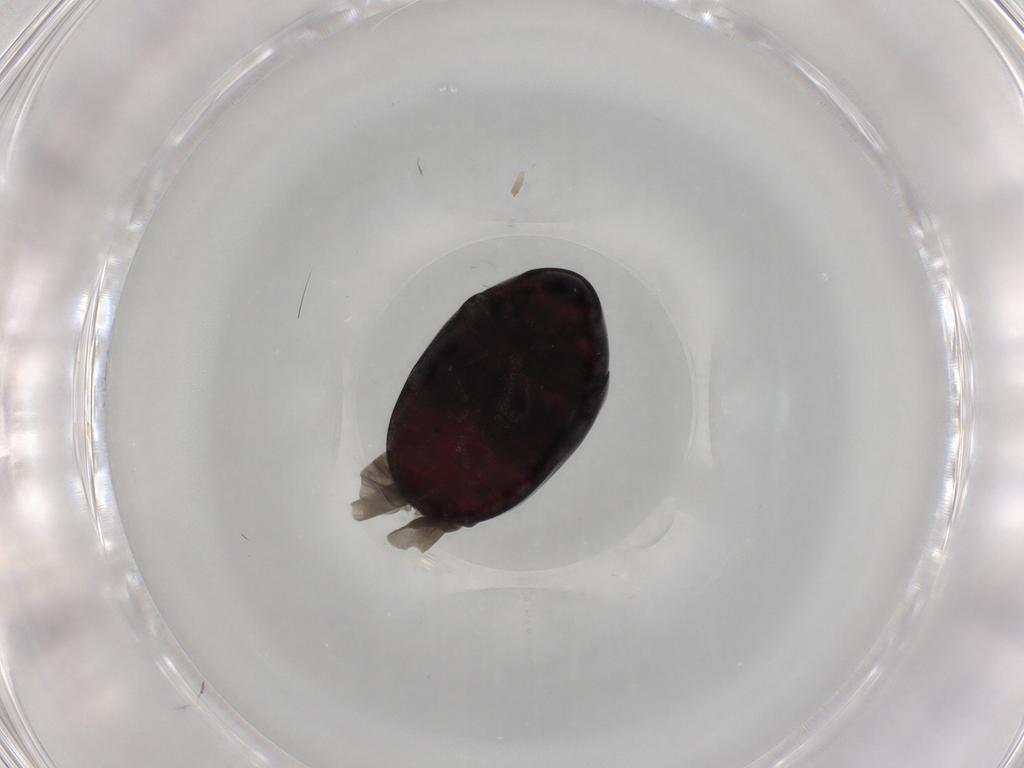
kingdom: Animalia
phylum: Arthropoda
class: Insecta
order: Coleoptera
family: Ptinidae
